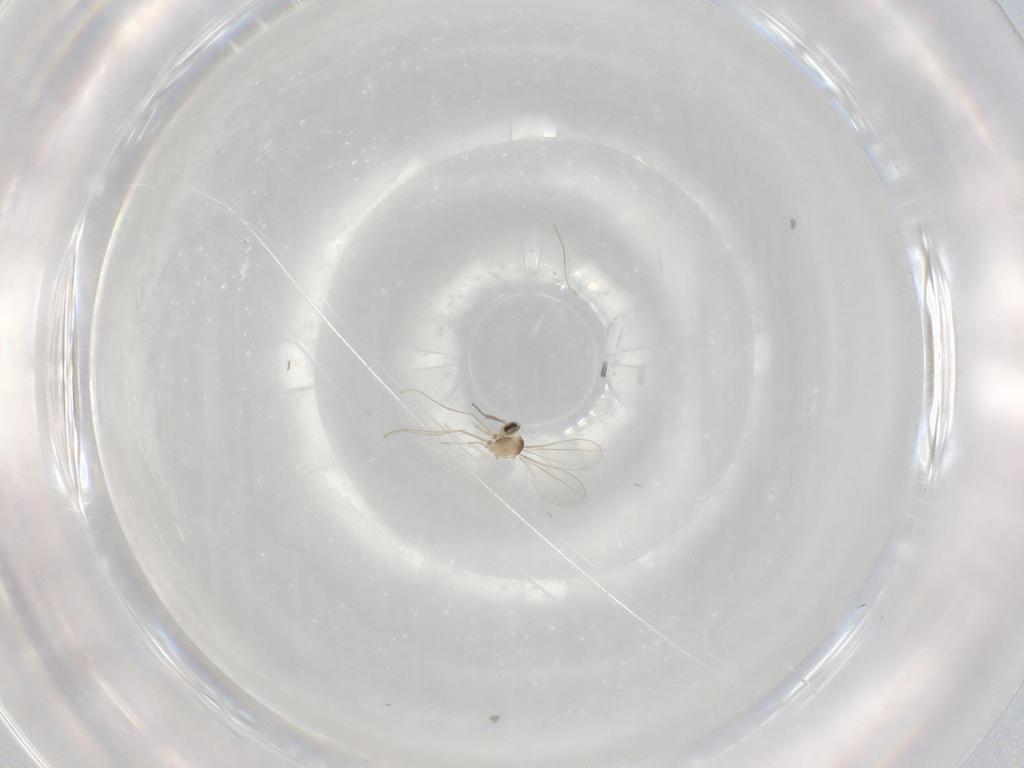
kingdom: Animalia
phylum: Arthropoda
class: Insecta
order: Diptera
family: Cecidomyiidae
